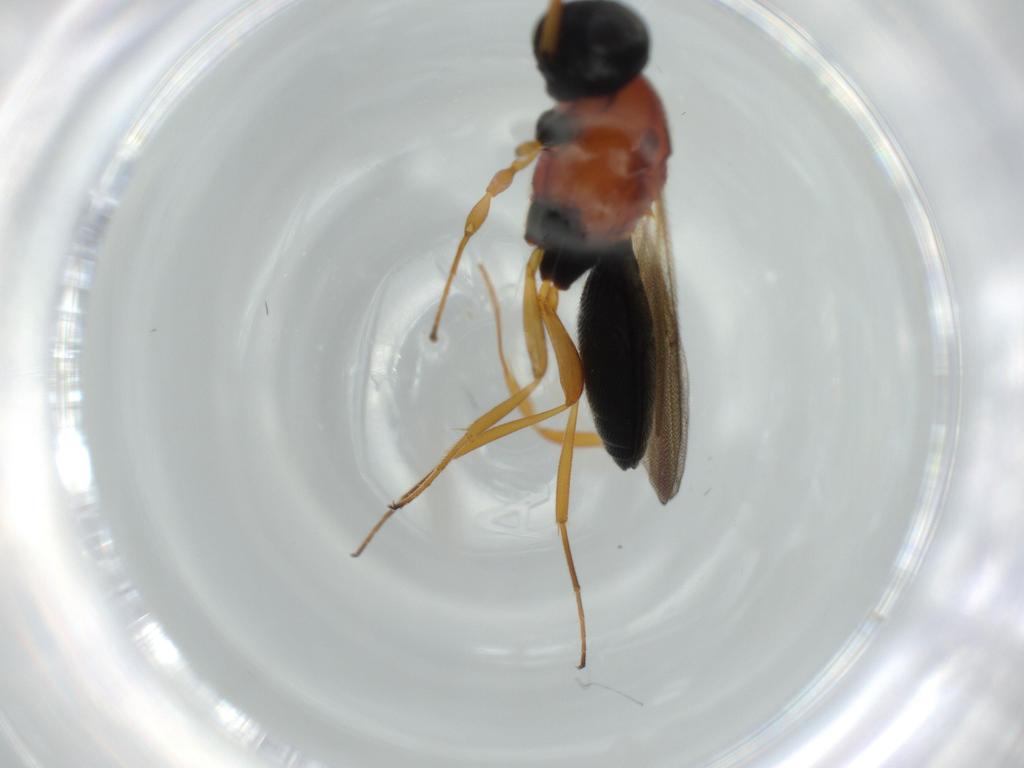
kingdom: Animalia
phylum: Arthropoda
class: Insecta
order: Hymenoptera
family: Scelionidae
